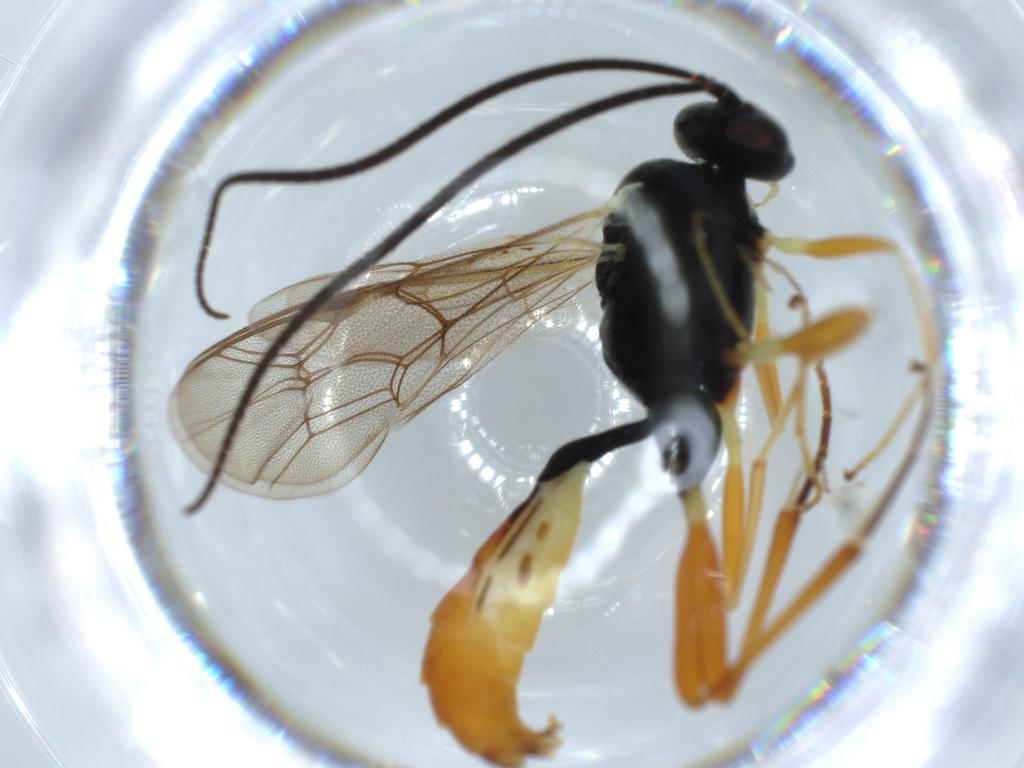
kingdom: Animalia
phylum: Arthropoda
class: Insecta
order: Hymenoptera
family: Ichneumonidae
